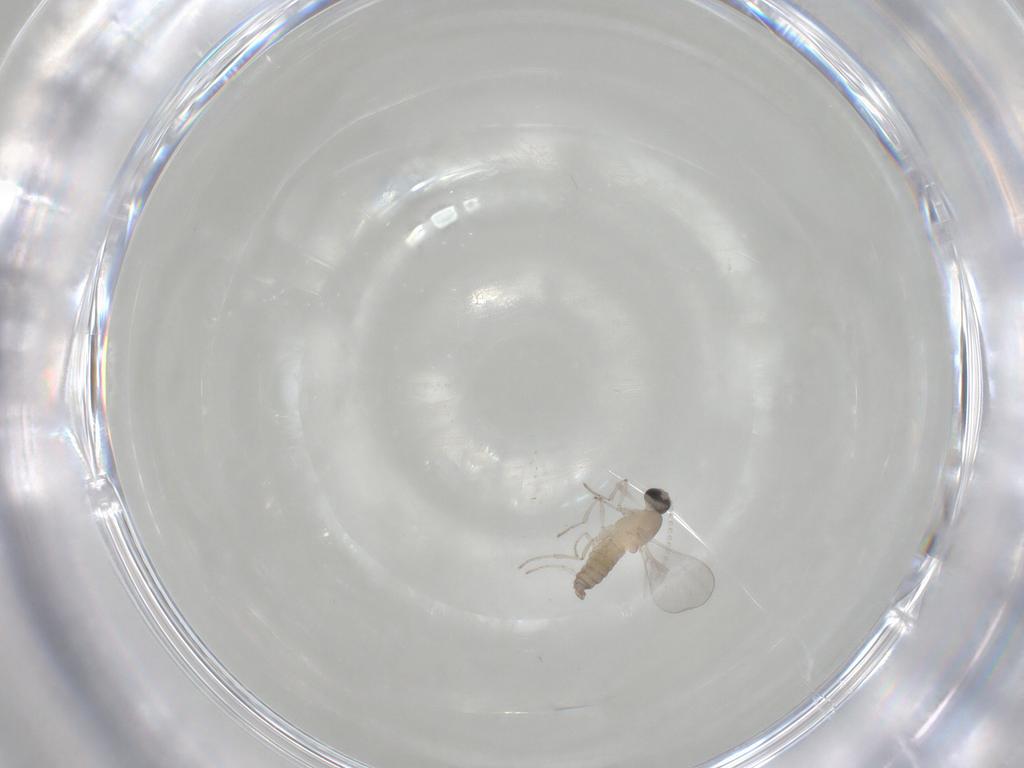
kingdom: Animalia
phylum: Arthropoda
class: Insecta
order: Diptera
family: Cecidomyiidae
